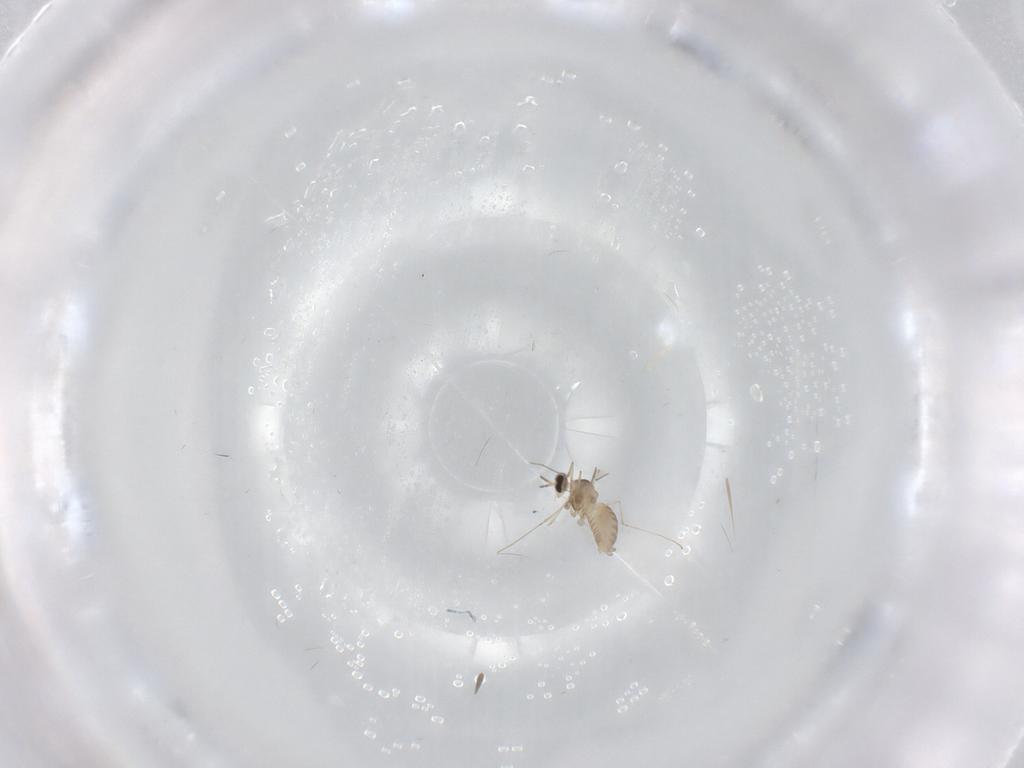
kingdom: Animalia
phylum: Arthropoda
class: Insecta
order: Diptera
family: Cecidomyiidae
